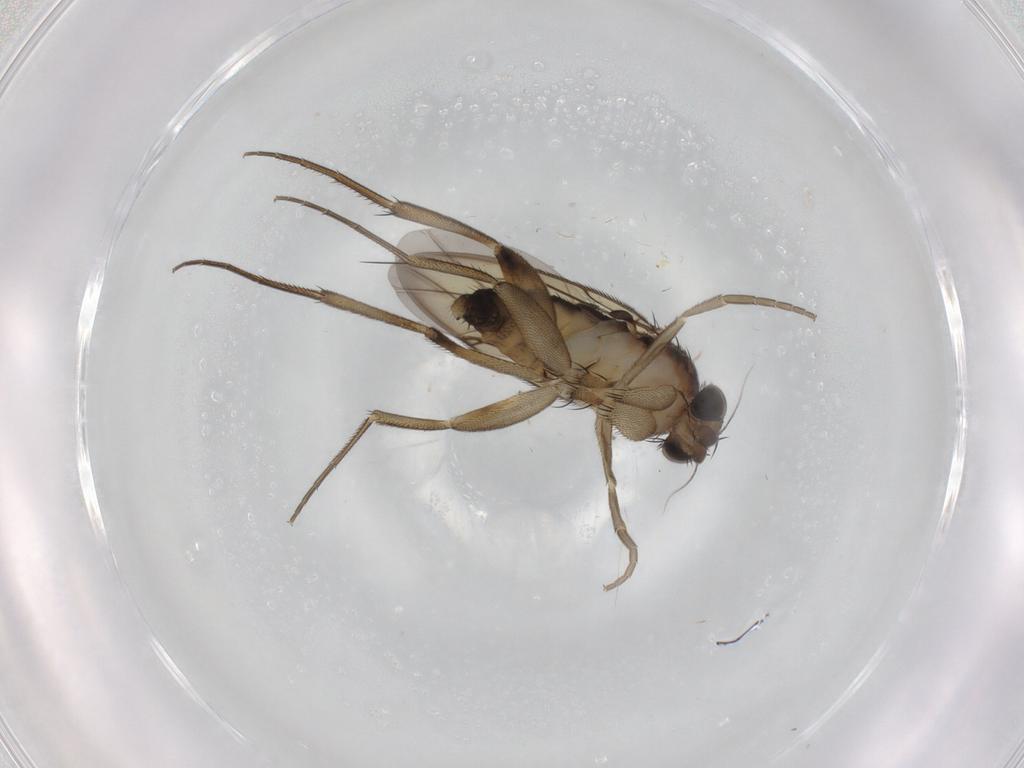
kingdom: Animalia
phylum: Arthropoda
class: Insecta
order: Diptera
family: Phoridae
